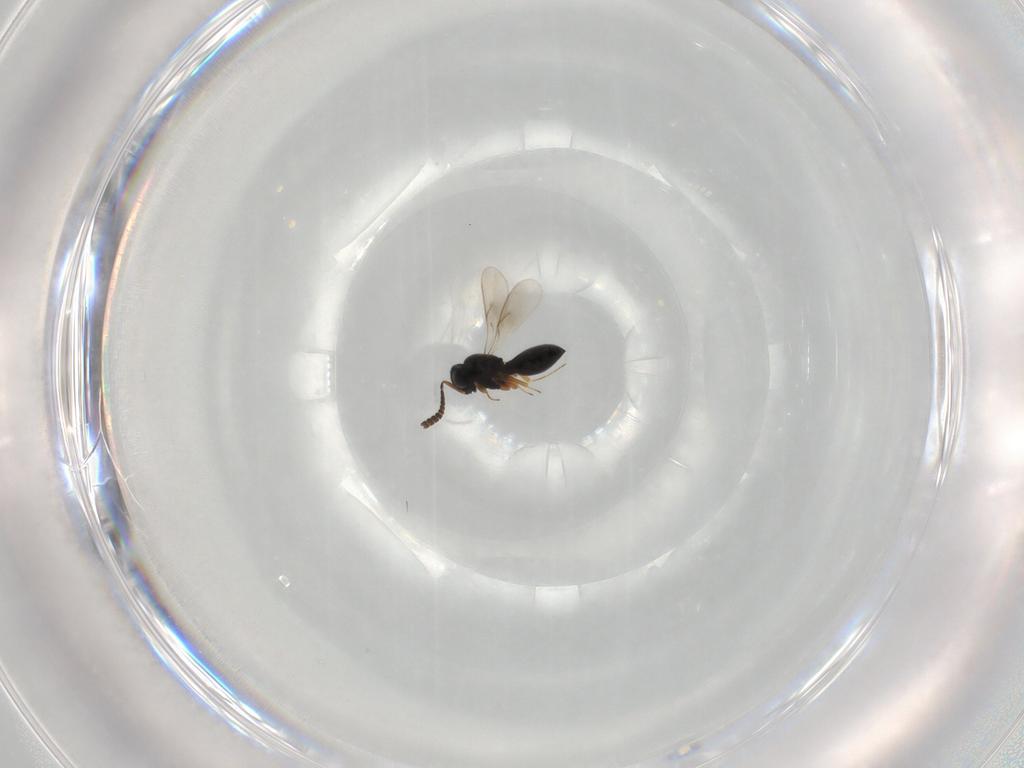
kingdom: Animalia
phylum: Arthropoda
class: Insecta
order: Hymenoptera
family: Scelionidae
